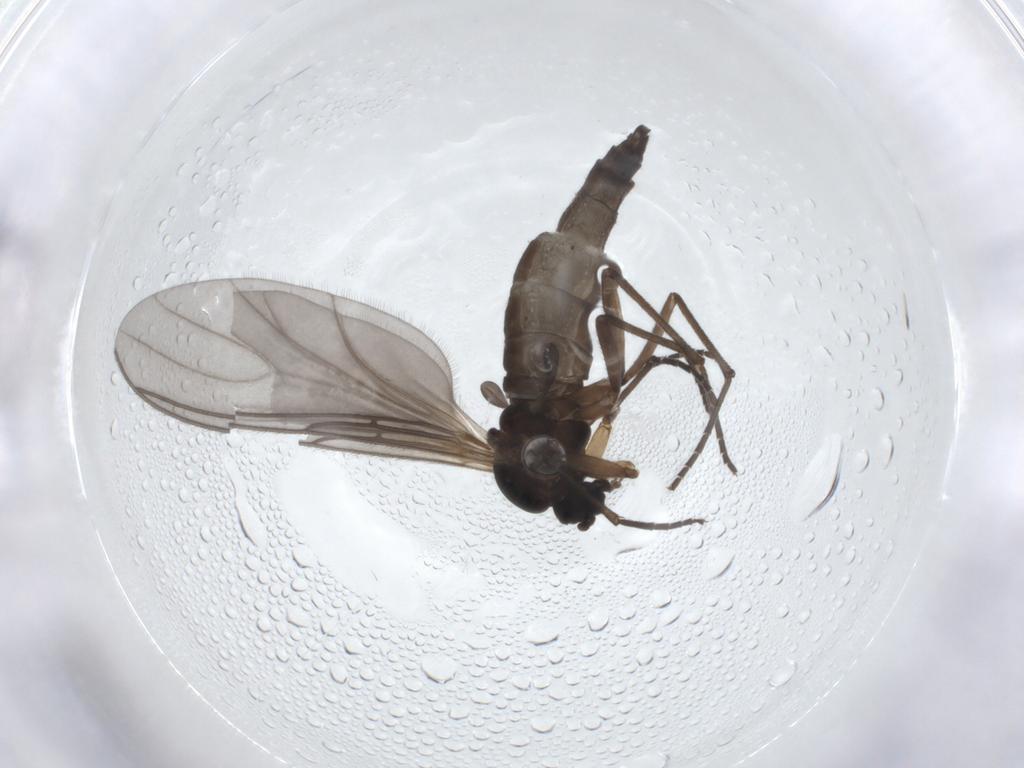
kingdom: Animalia
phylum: Arthropoda
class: Insecta
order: Diptera
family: Sciaridae
